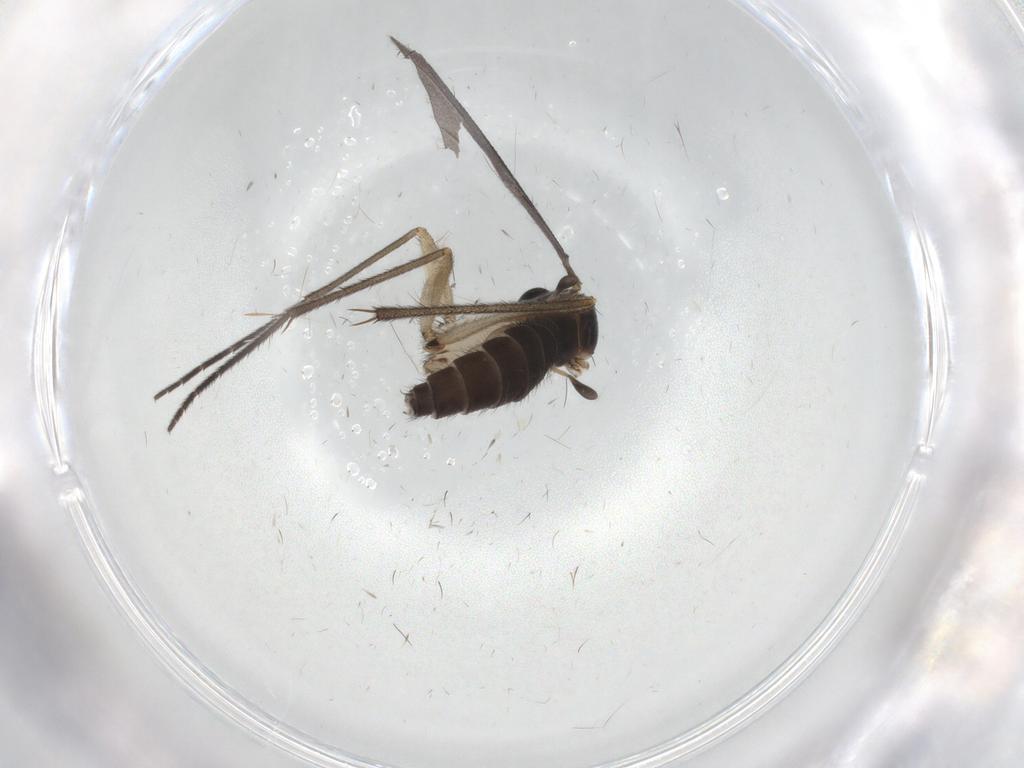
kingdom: Animalia
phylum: Arthropoda
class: Insecta
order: Diptera
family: Sciaridae
